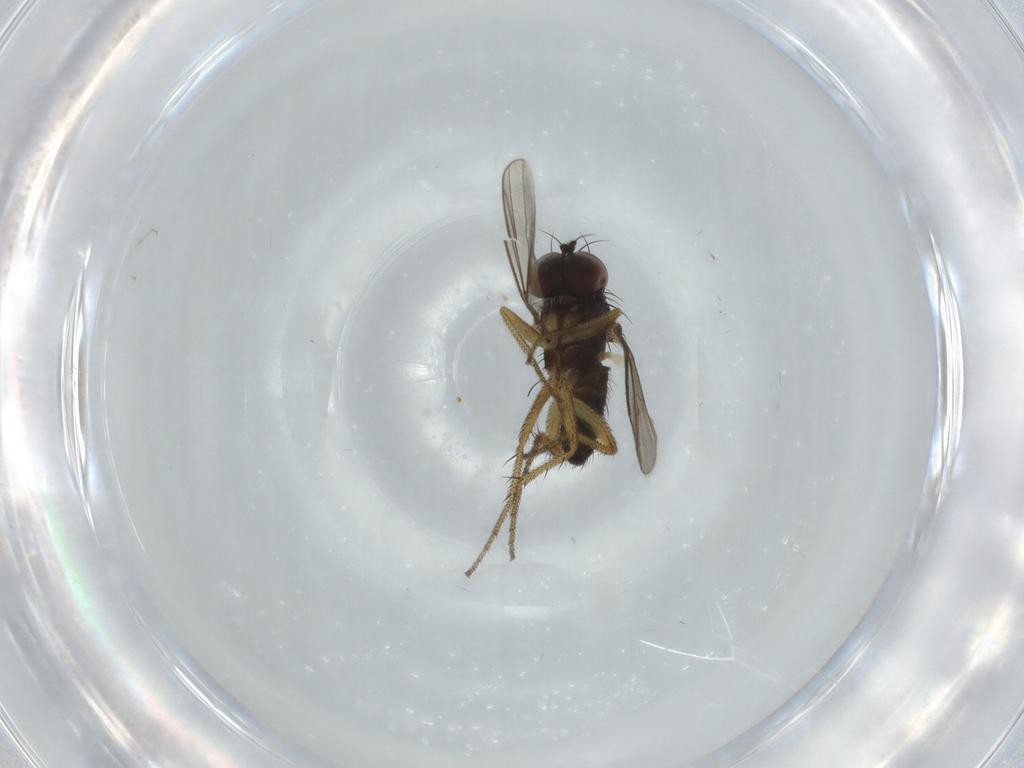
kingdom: Animalia
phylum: Arthropoda
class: Insecta
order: Diptera
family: Dolichopodidae
